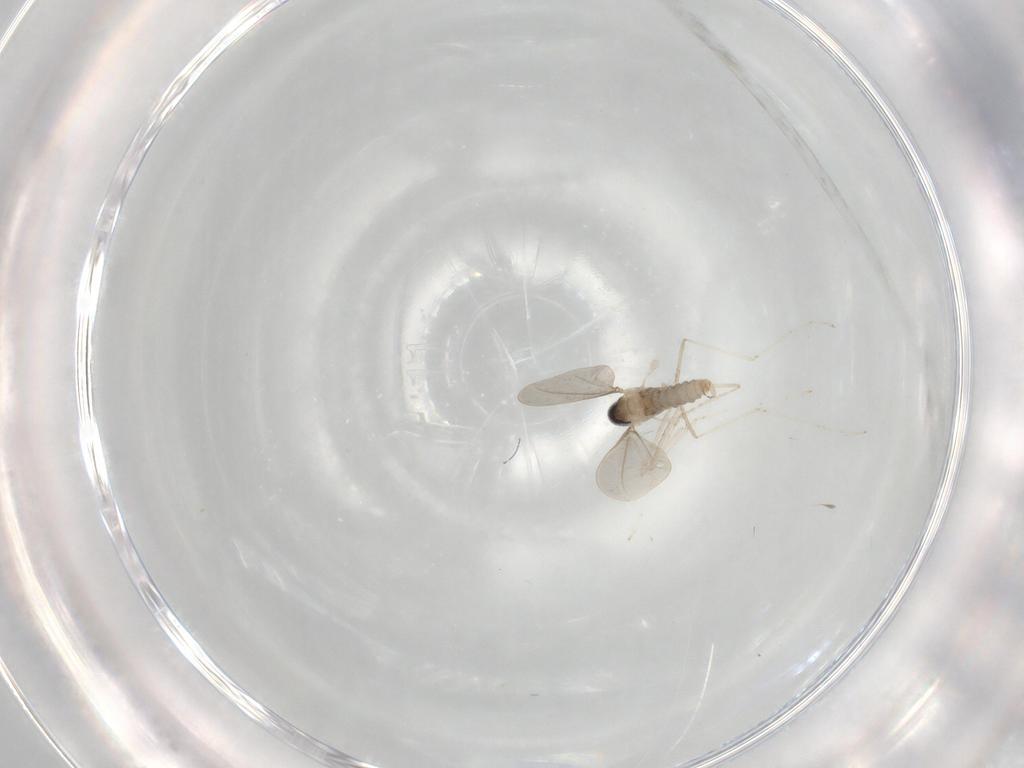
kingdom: Animalia
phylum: Arthropoda
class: Insecta
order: Diptera
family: Cecidomyiidae
